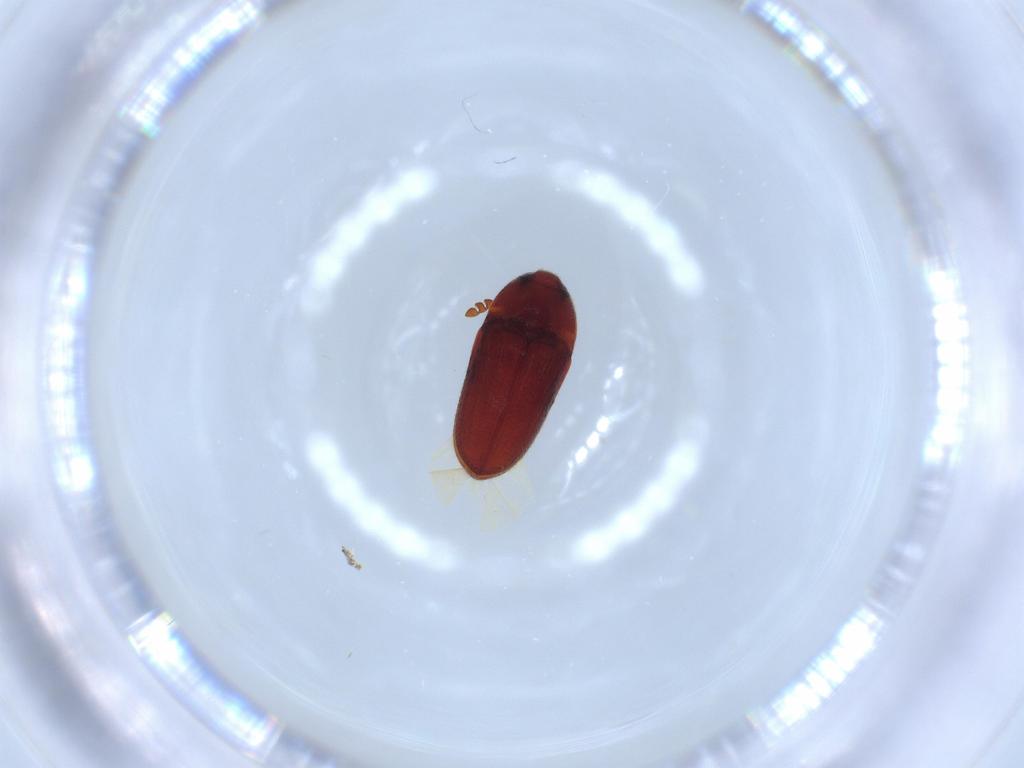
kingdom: Animalia
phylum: Arthropoda
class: Insecta
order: Coleoptera
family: Throscidae
